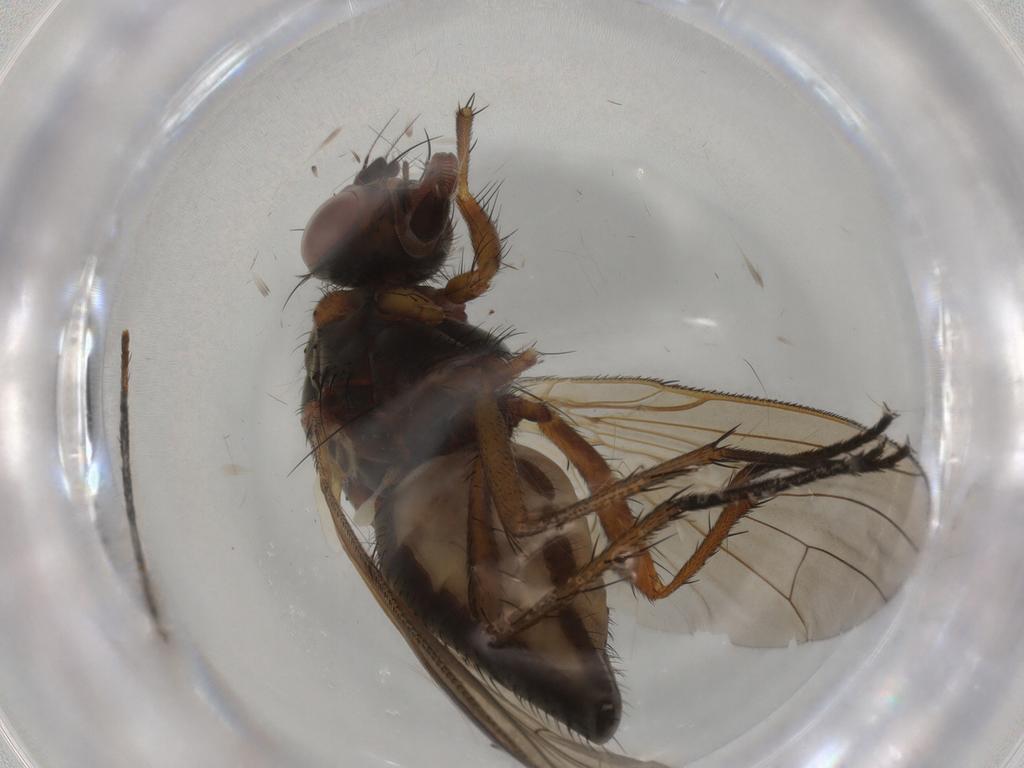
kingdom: Animalia
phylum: Arthropoda
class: Insecta
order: Diptera
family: Anthomyiidae
